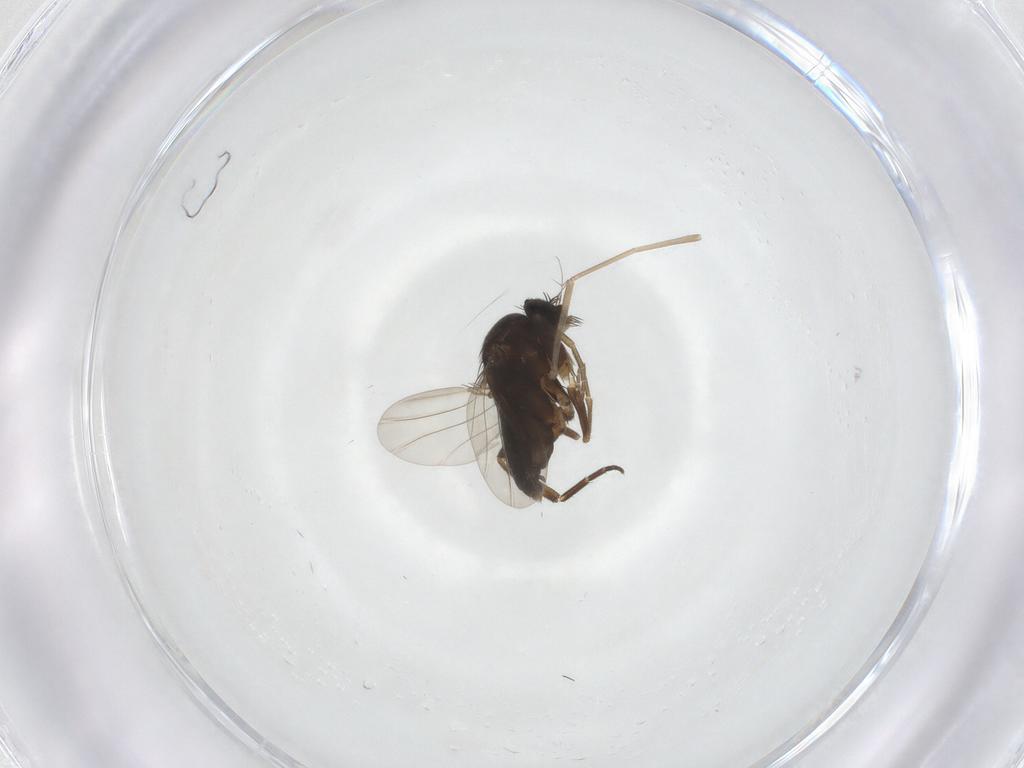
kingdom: Animalia
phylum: Arthropoda
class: Insecta
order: Diptera
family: Phoridae
